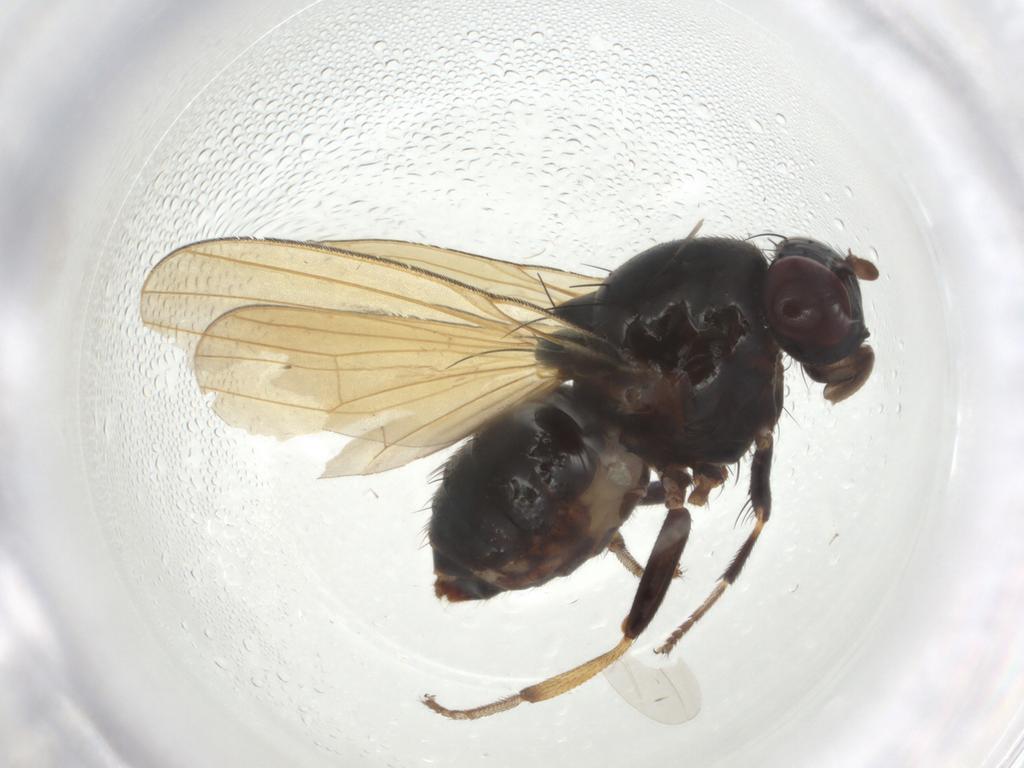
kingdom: Animalia
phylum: Arthropoda
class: Insecta
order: Diptera
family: Lauxaniidae
